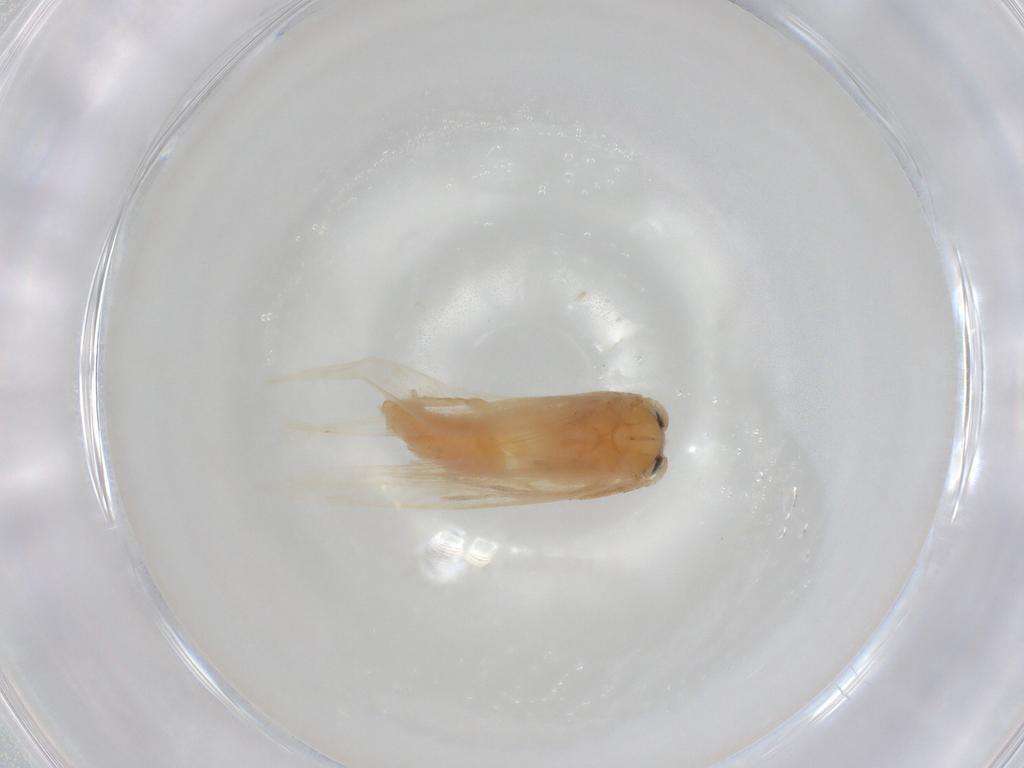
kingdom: Animalia
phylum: Arthropoda
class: Insecta
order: Lepidoptera
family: Nepticulidae
